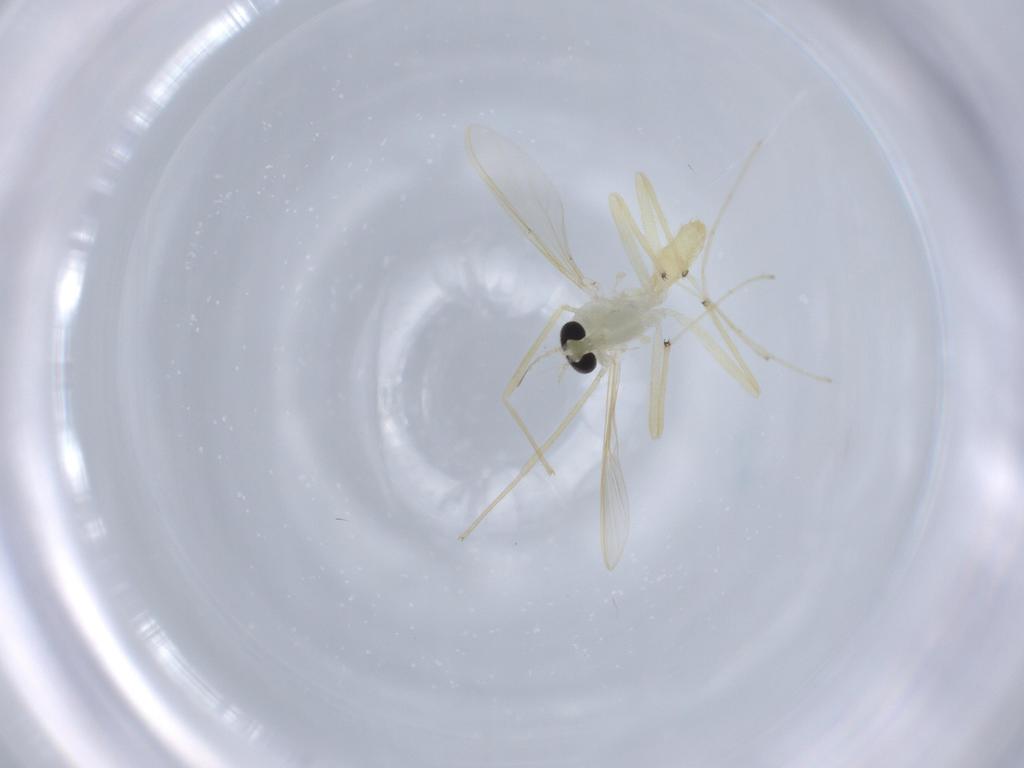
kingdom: Animalia
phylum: Arthropoda
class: Insecta
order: Diptera
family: Chironomidae
